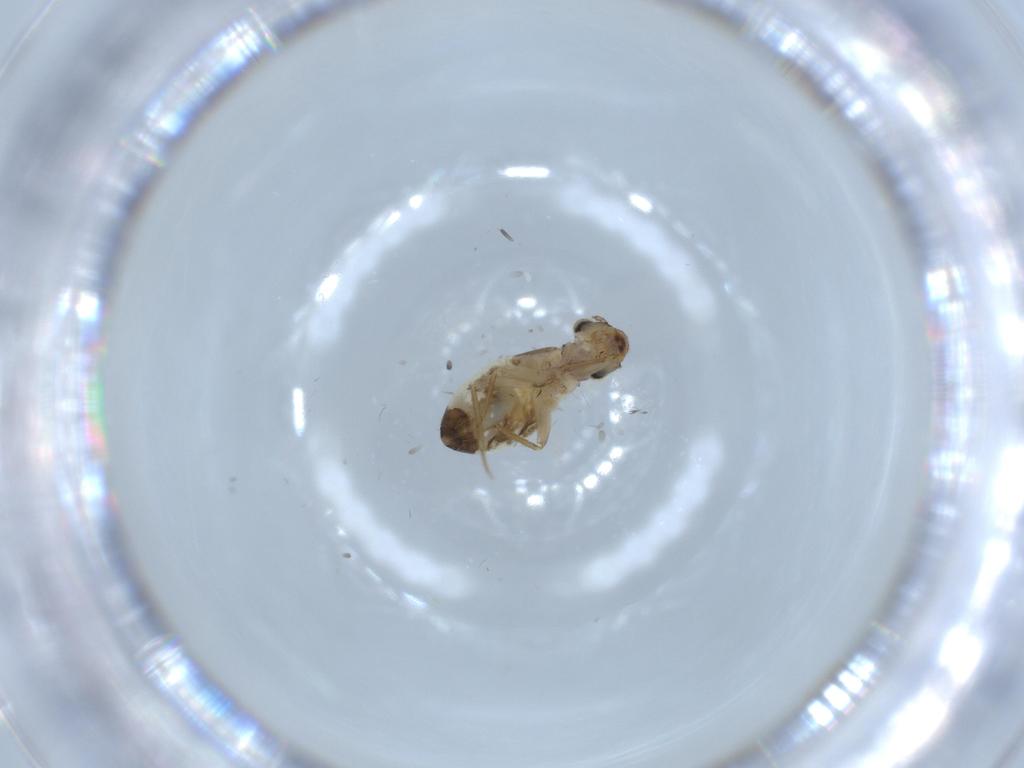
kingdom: Animalia
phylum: Arthropoda
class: Insecta
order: Psocodea
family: Lepidopsocidae
